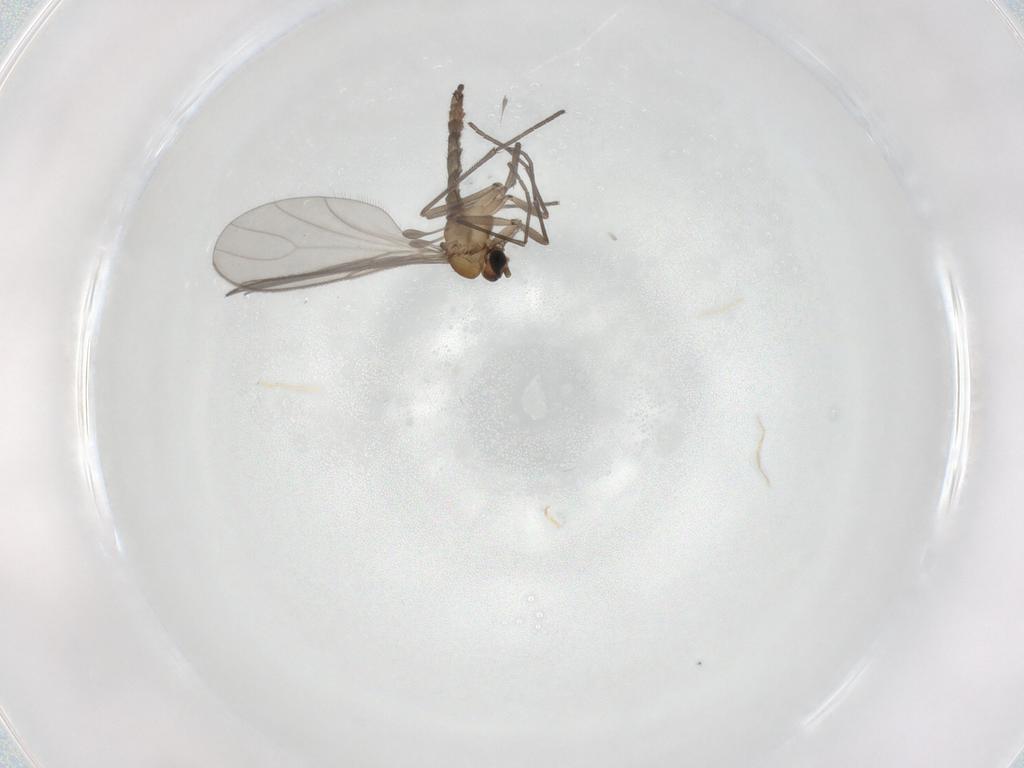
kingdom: Animalia
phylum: Arthropoda
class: Insecta
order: Diptera
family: Sciaridae
